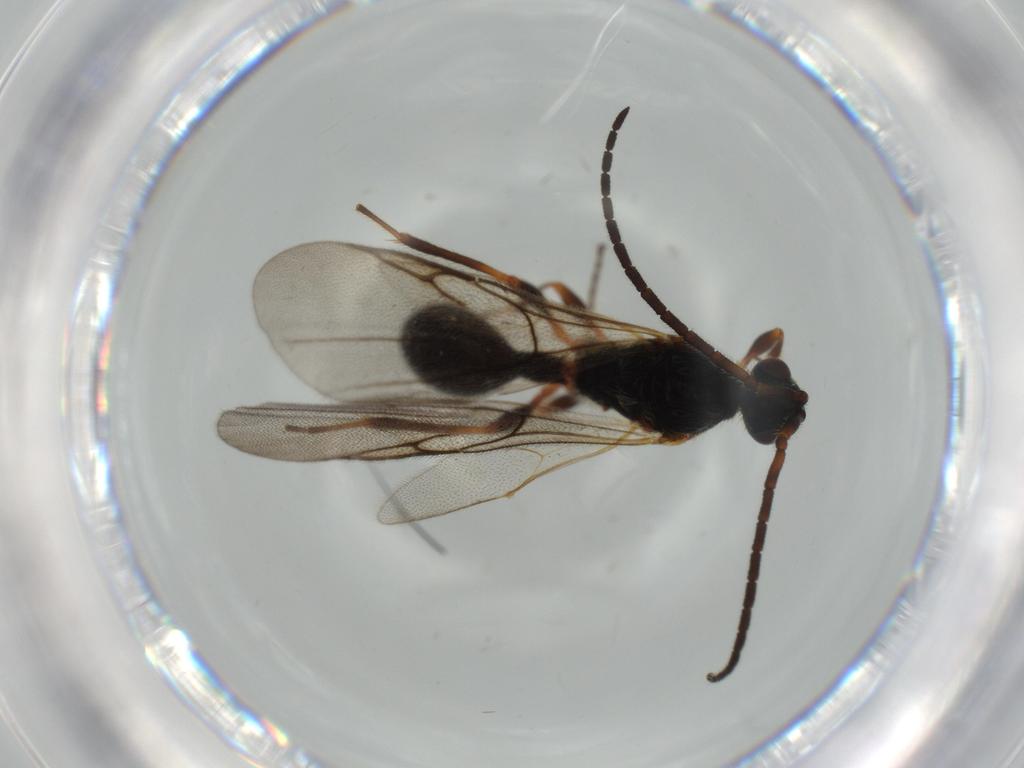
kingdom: Animalia
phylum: Arthropoda
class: Insecta
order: Hymenoptera
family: Ichneumonidae
